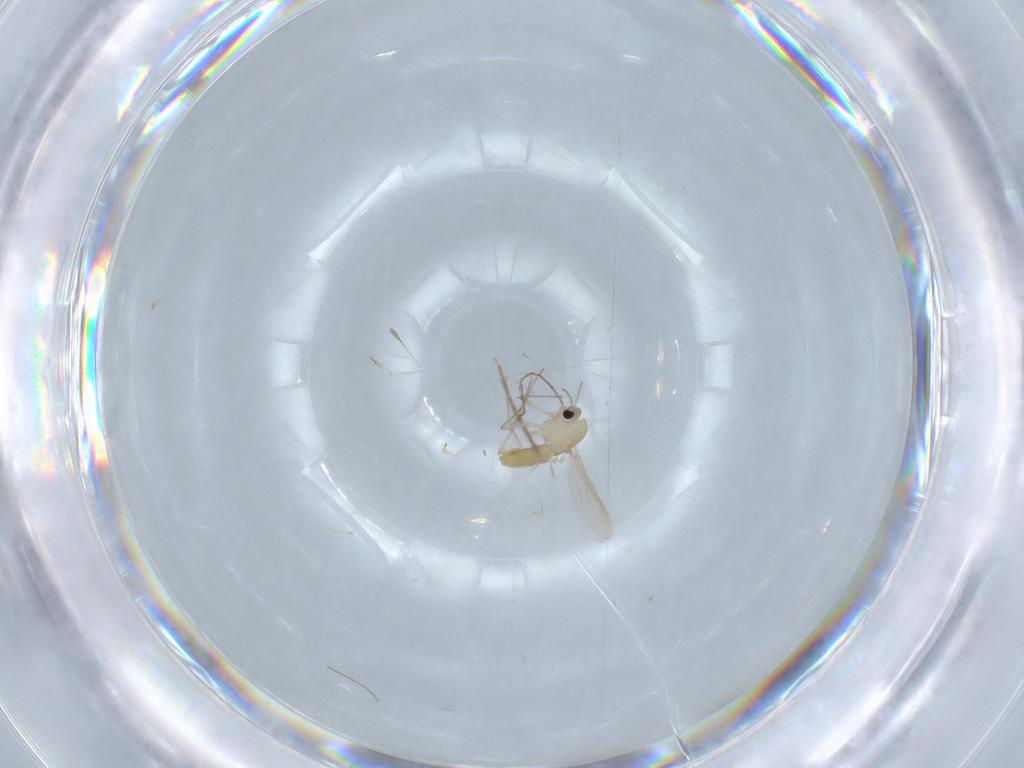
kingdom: Animalia
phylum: Arthropoda
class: Insecta
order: Diptera
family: Chironomidae
